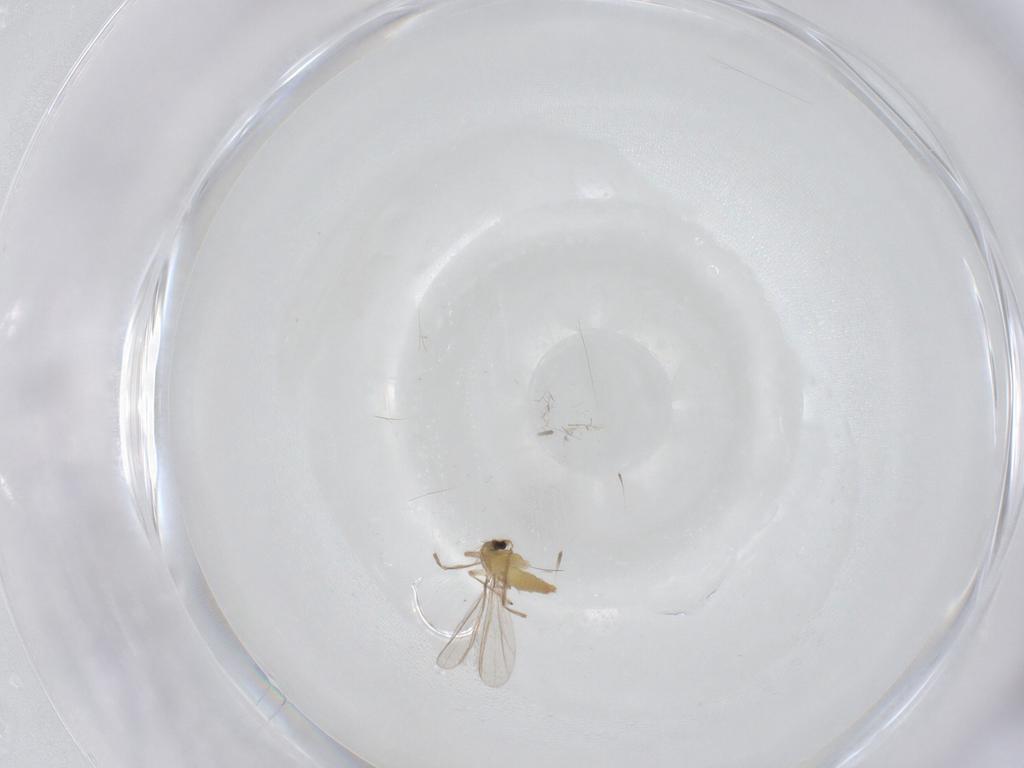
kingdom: Animalia
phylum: Arthropoda
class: Insecta
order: Diptera
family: Chironomidae
